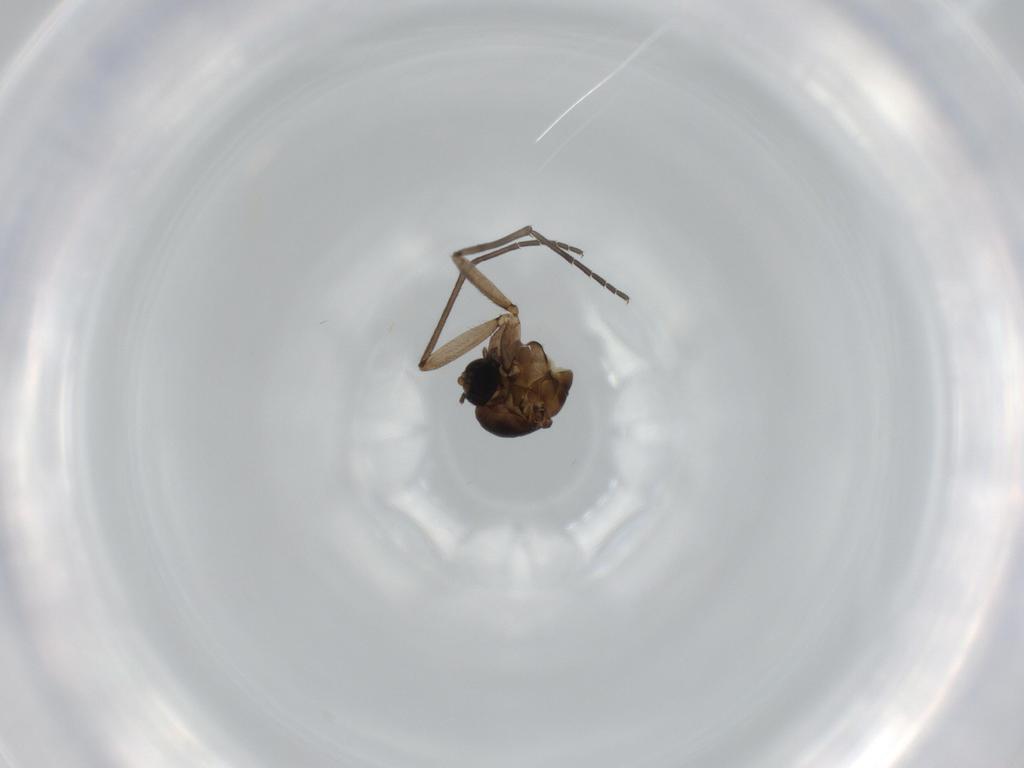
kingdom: Animalia
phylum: Arthropoda
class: Insecta
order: Diptera
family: Sciaridae
